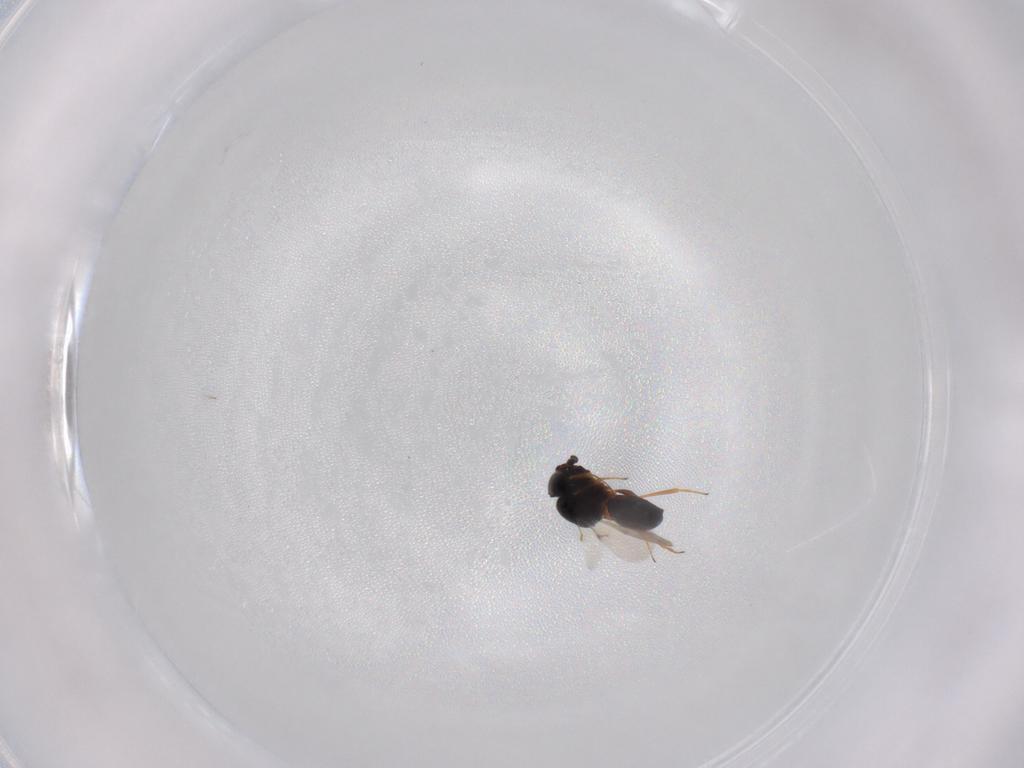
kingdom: Animalia
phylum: Arthropoda
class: Arachnida
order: Araneae
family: Pholcidae
